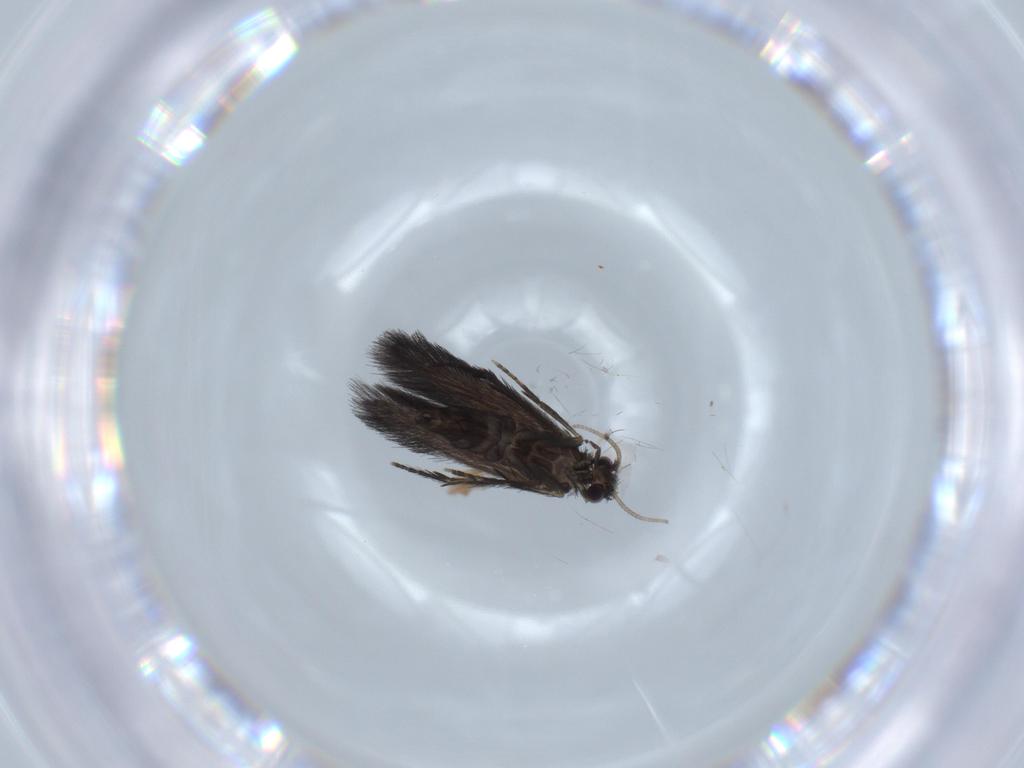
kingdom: Animalia
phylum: Arthropoda
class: Insecta
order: Trichoptera
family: Hydroptilidae
